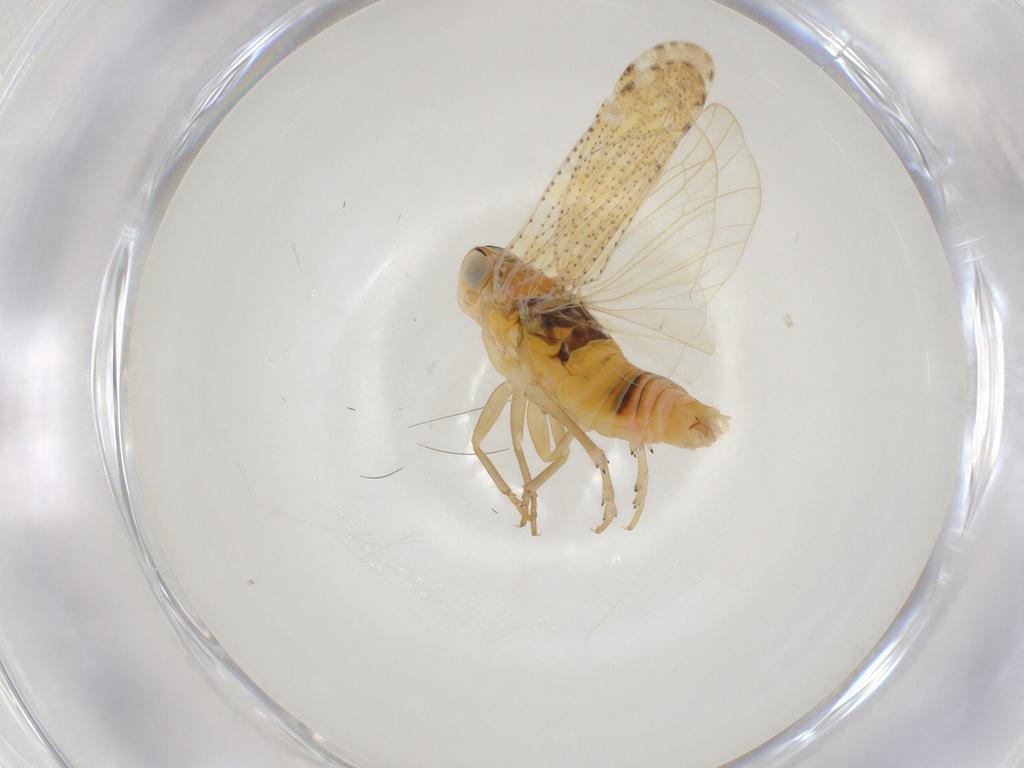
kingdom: Animalia
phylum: Arthropoda
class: Insecta
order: Hemiptera
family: Cixiidae
